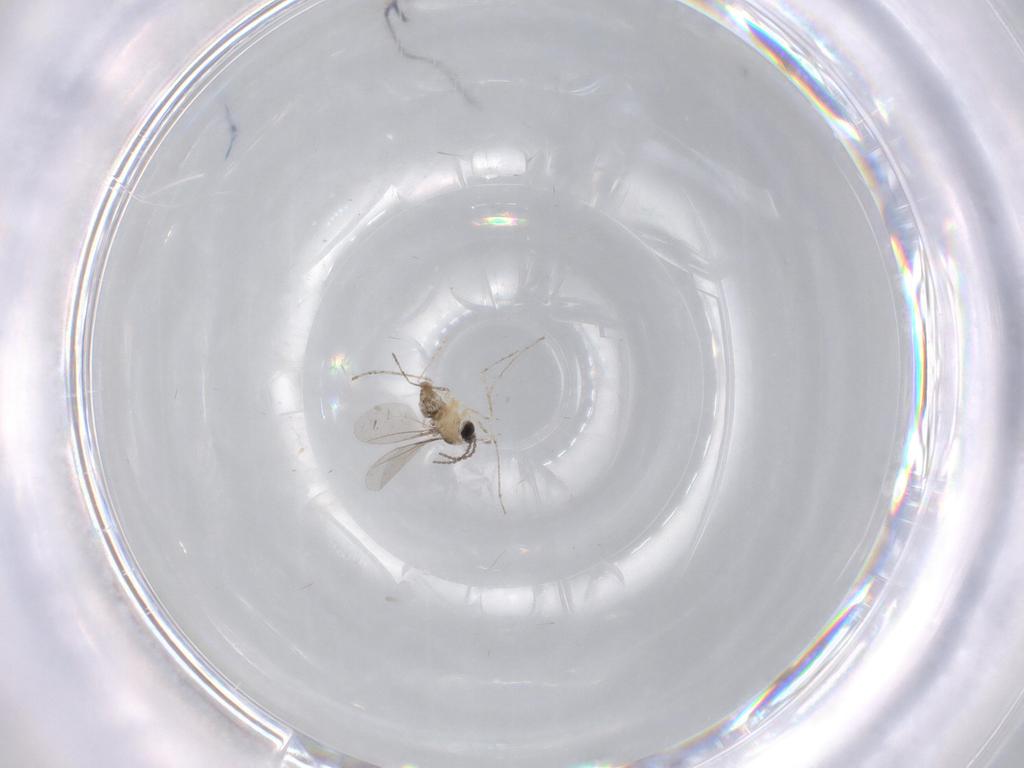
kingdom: Animalia
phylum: Arthropoda
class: Insecta
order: Diptera
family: Cecidomyiidae
